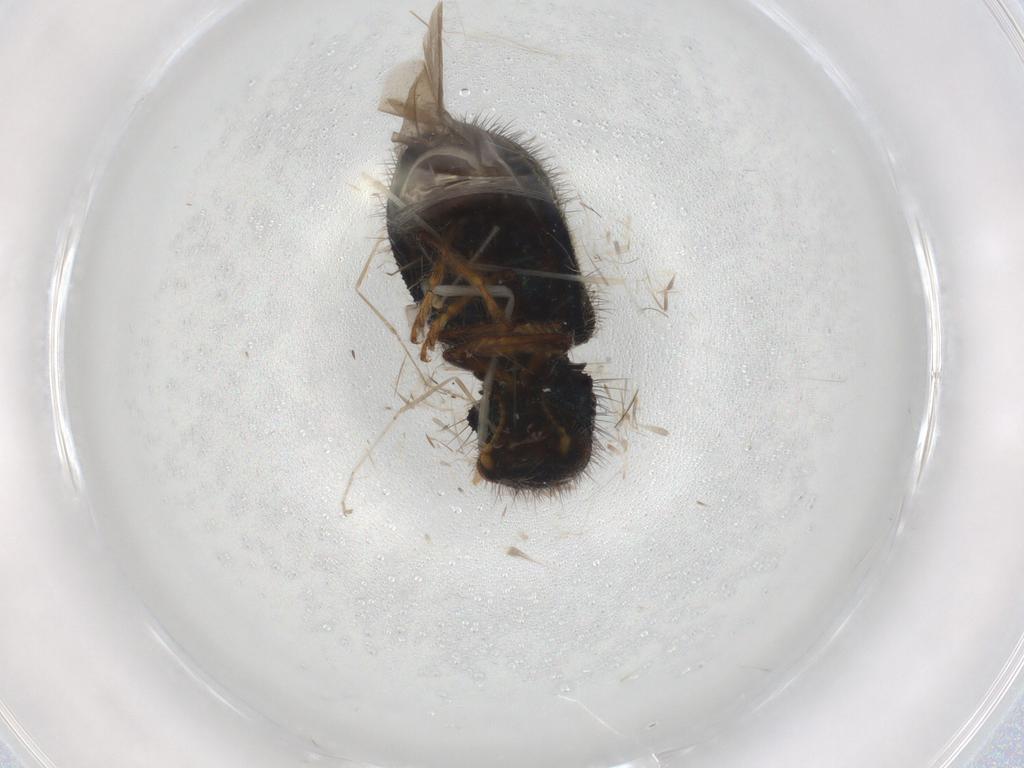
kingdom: Animalia
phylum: Arthropoda
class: Insecta
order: Coleoptera
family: Cleridae
